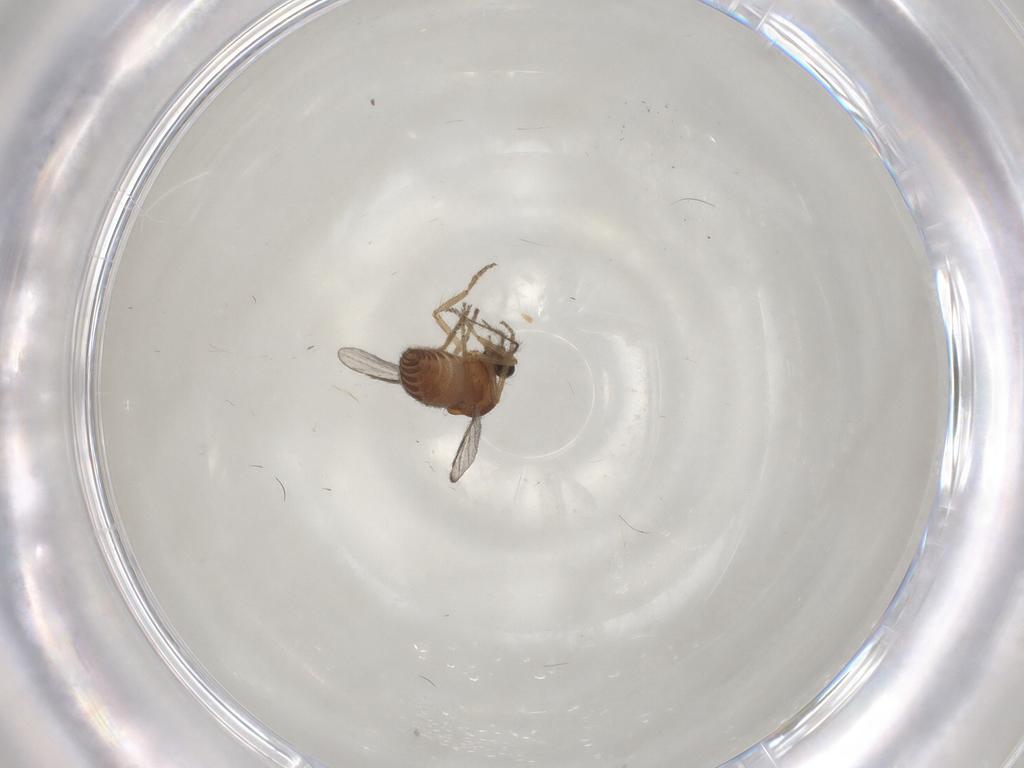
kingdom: Animalia
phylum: Arthropoda
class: Insecta
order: Diptera
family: Ceratopogonidae
